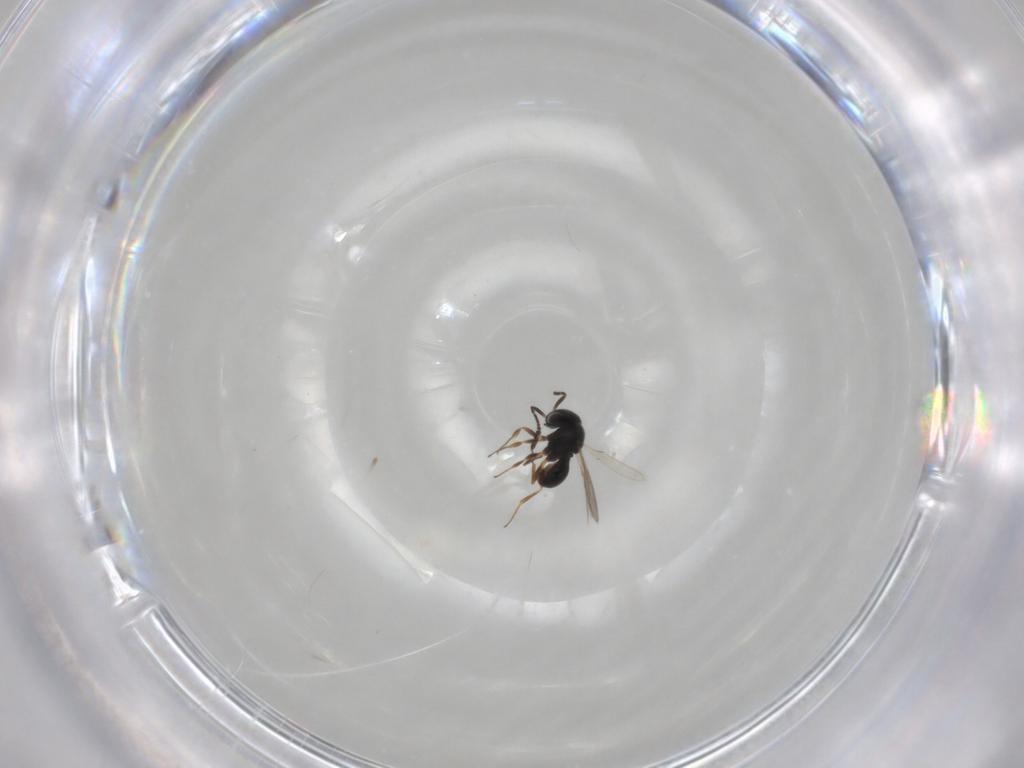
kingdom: Animalia
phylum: Arthropoda
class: Insecta
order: Hymenoptera
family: Scelionidae
